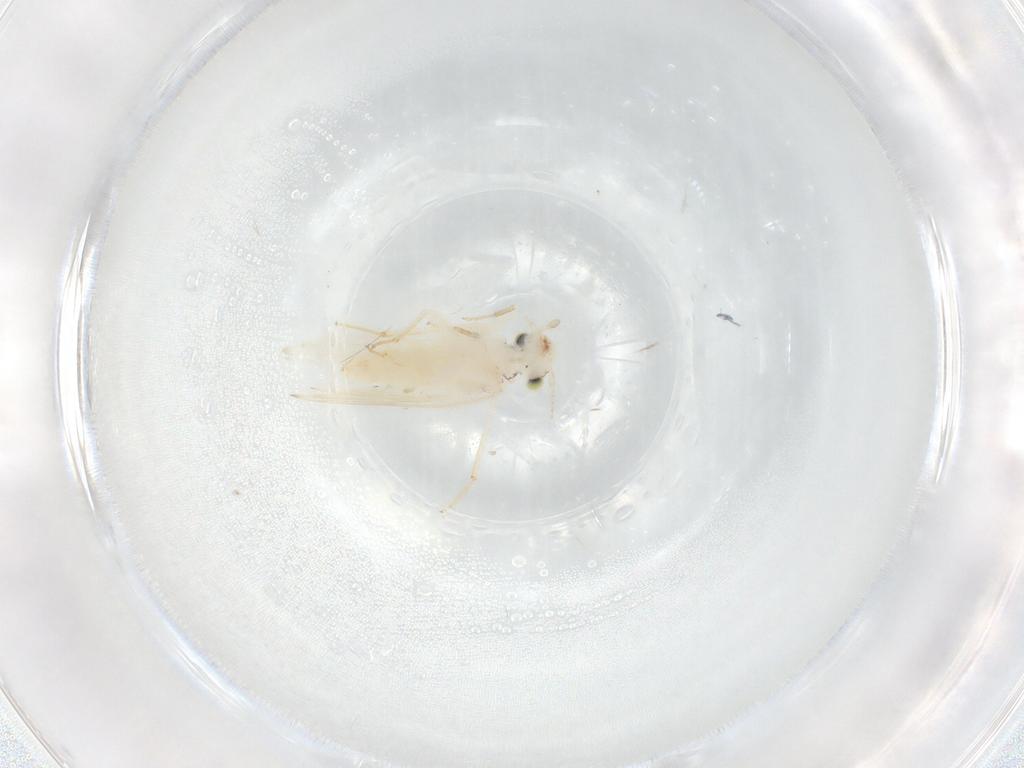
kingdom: Animalia
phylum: Arthropoda
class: Insecta
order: Psocodea
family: Lepidopsocidae
